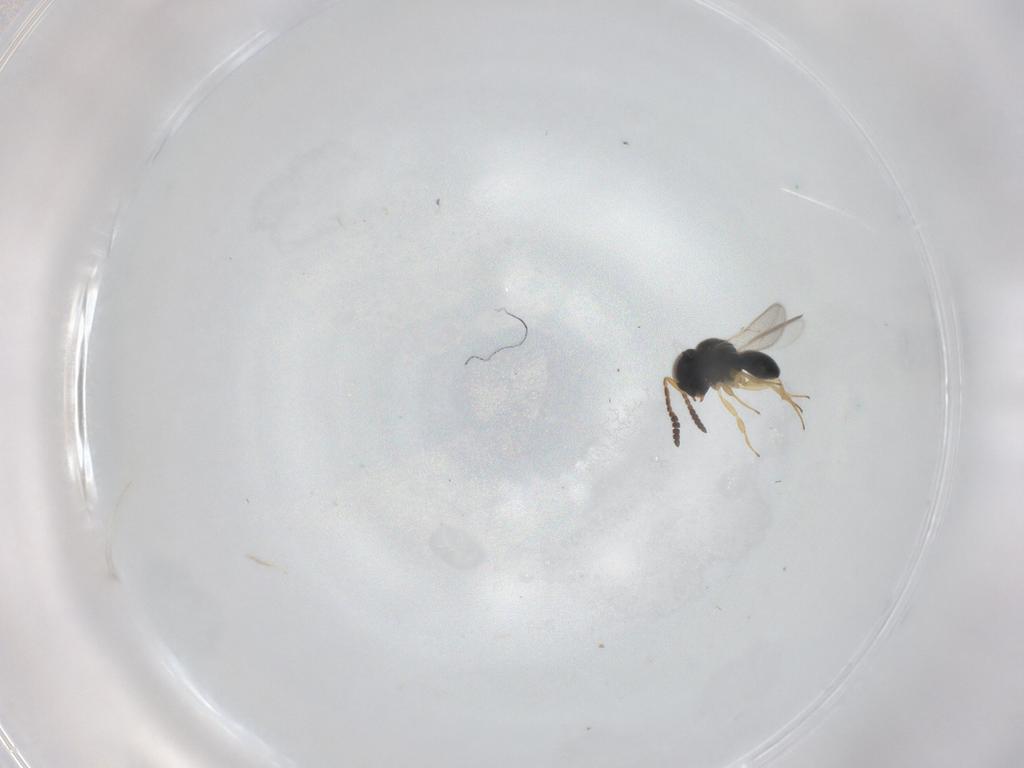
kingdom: Animalia
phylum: Arthropoda
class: Insecta
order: Hymenoptera
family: Scelionidae
